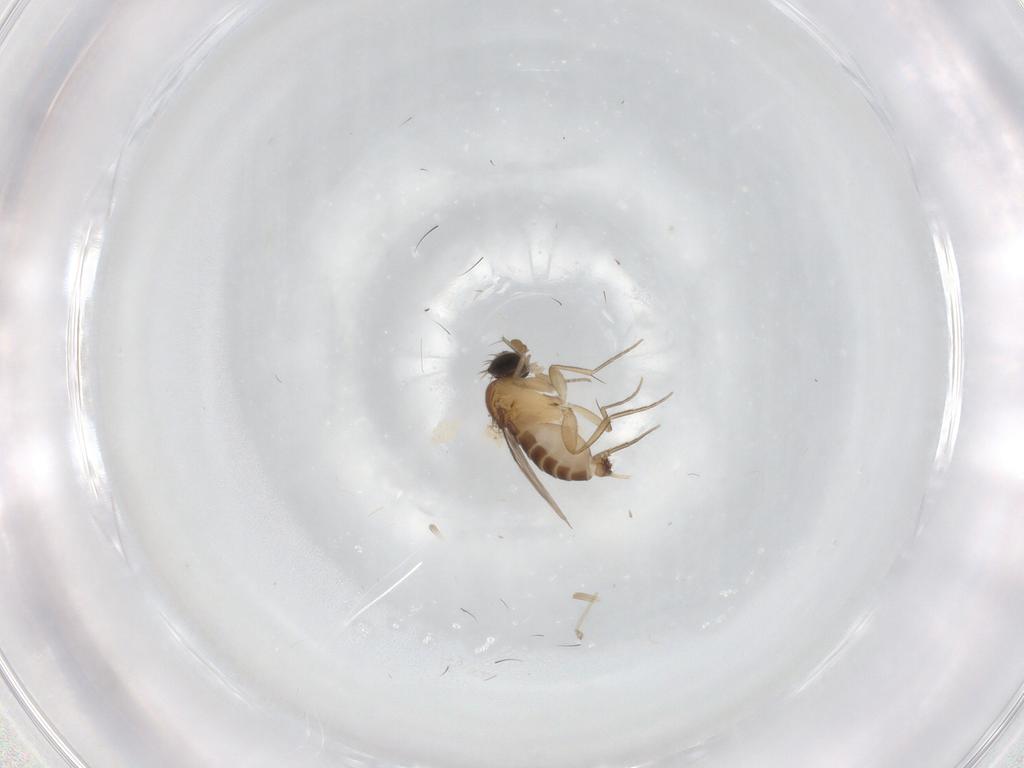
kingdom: Animalia
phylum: Arthropoda
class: Insecta
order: Diptera
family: Phoridae
